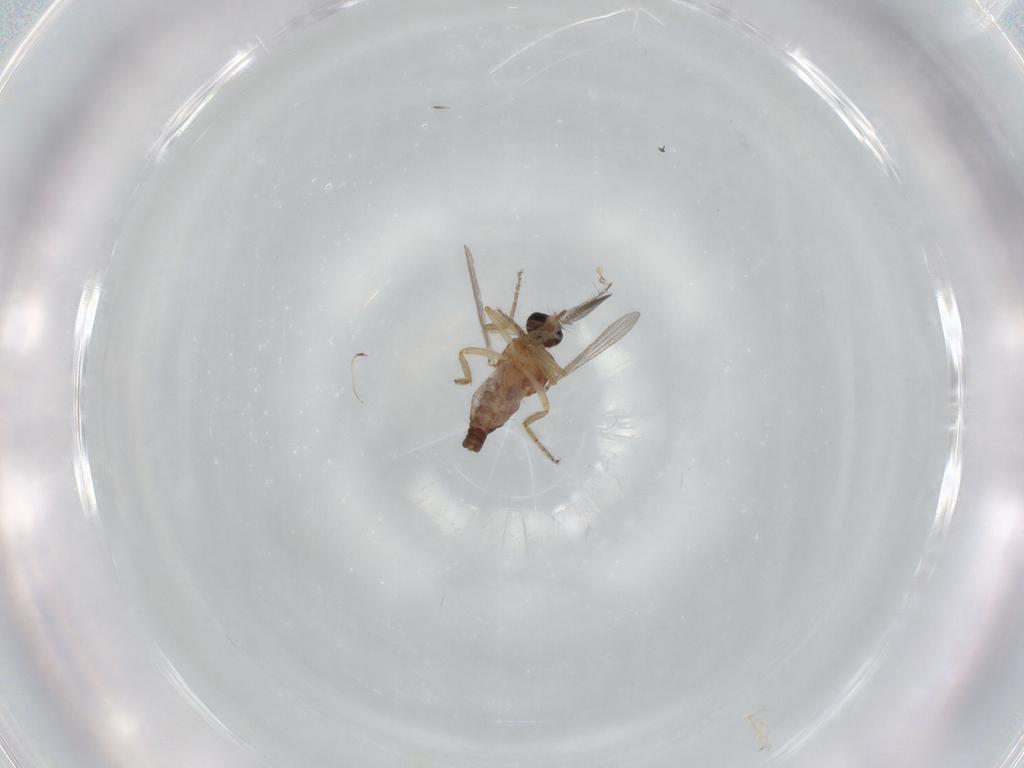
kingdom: Animalia
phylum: Arthropoda
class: Insecta
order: Diptera
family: Ceratopogonidae
